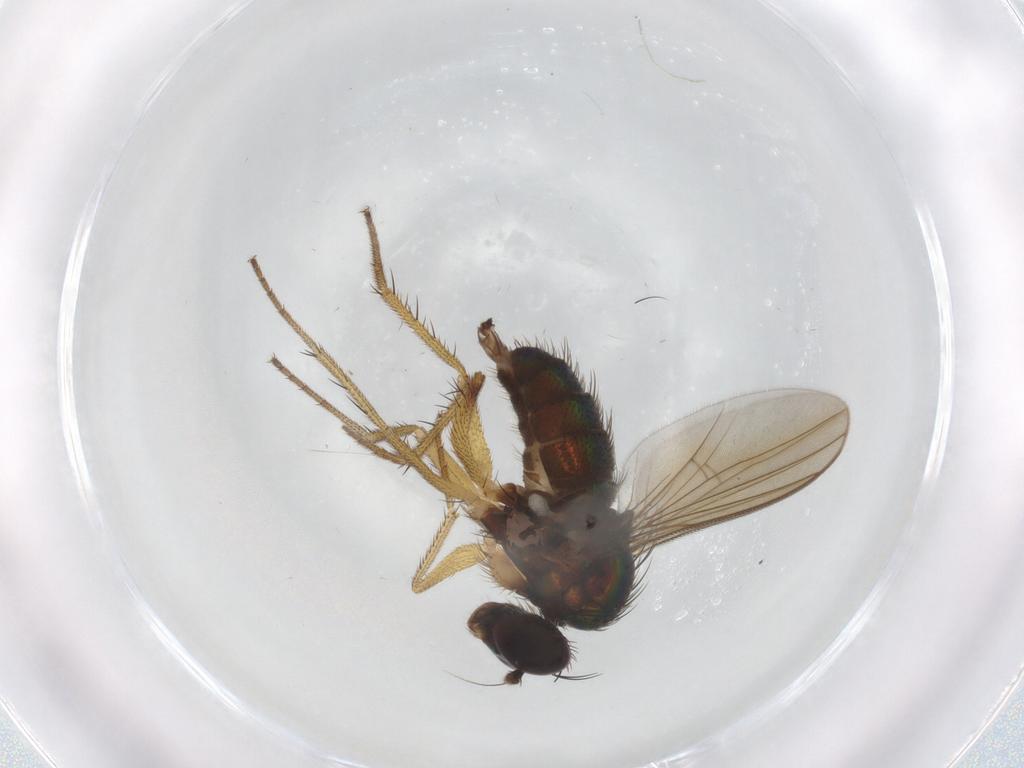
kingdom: Animalia
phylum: Arthropoda
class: Insecta
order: Diptera
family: Dolichopodidae
